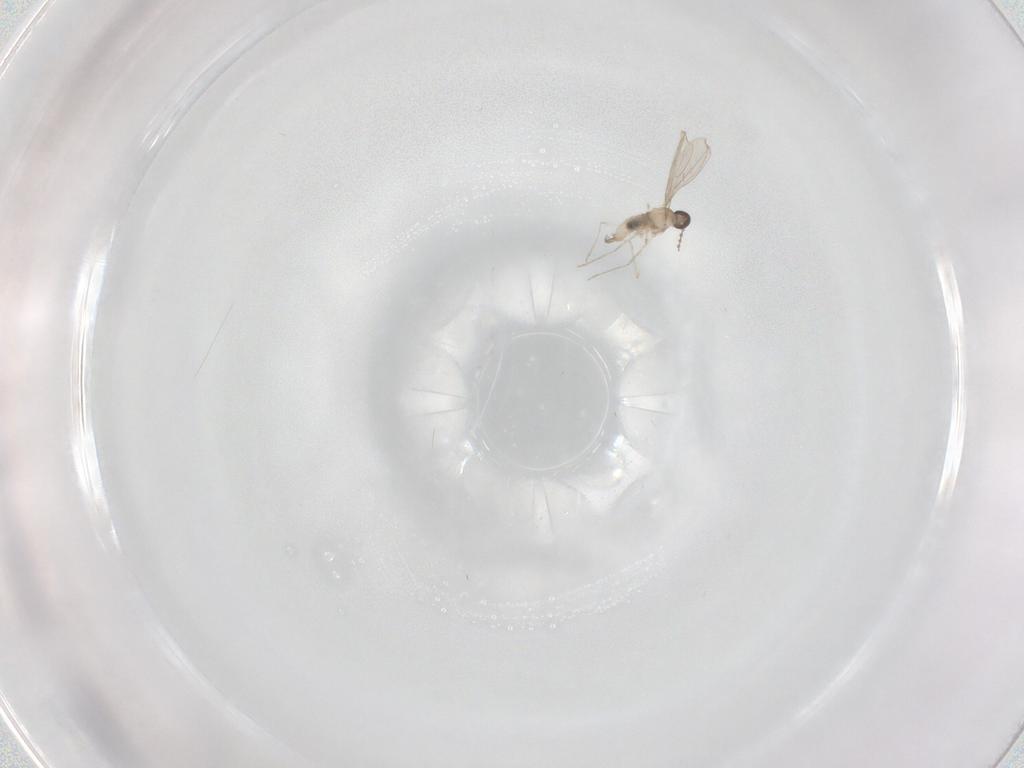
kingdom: Animalia
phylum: Arthropoda
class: Insecta
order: Diptera
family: Cecidomyiidae
